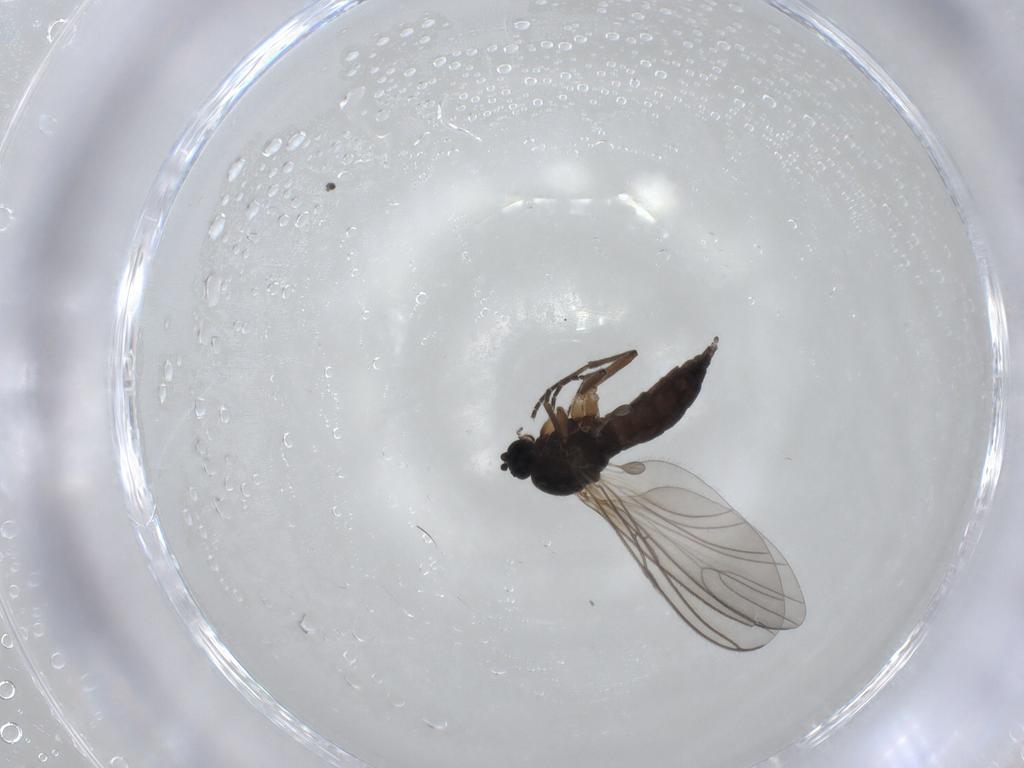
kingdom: Animalia
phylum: Arthropoda
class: Insecta
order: Diptera
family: Sciaridae
